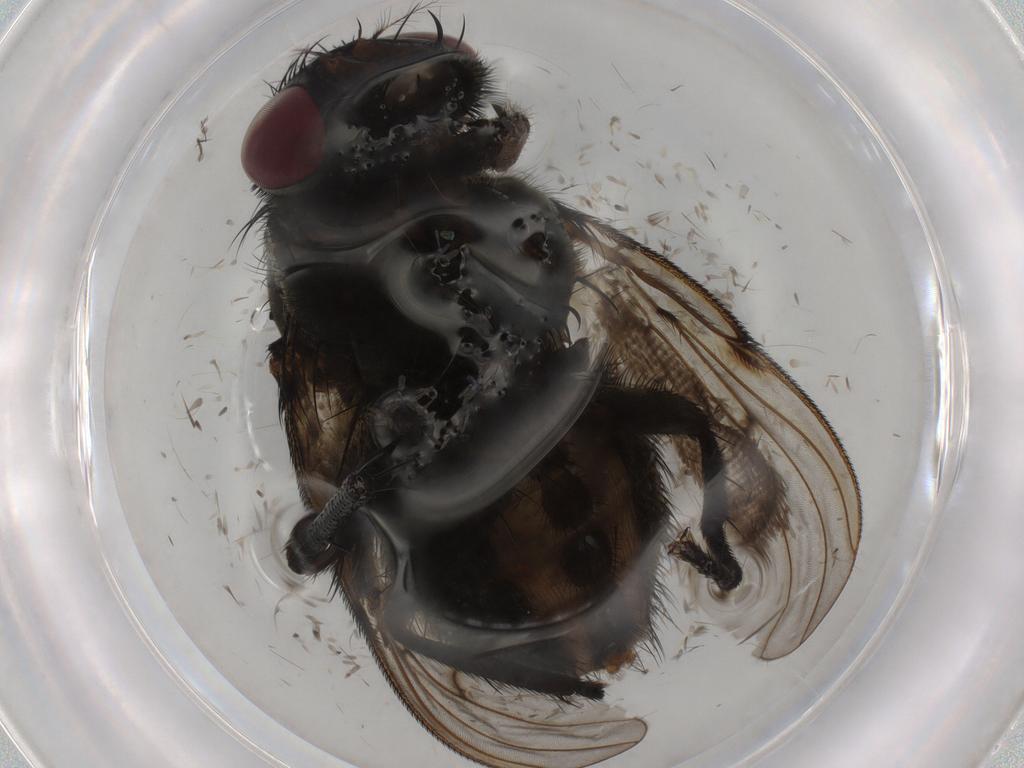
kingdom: Animalia
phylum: Arthropoda
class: Insecta
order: Diptera
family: Muscidae
